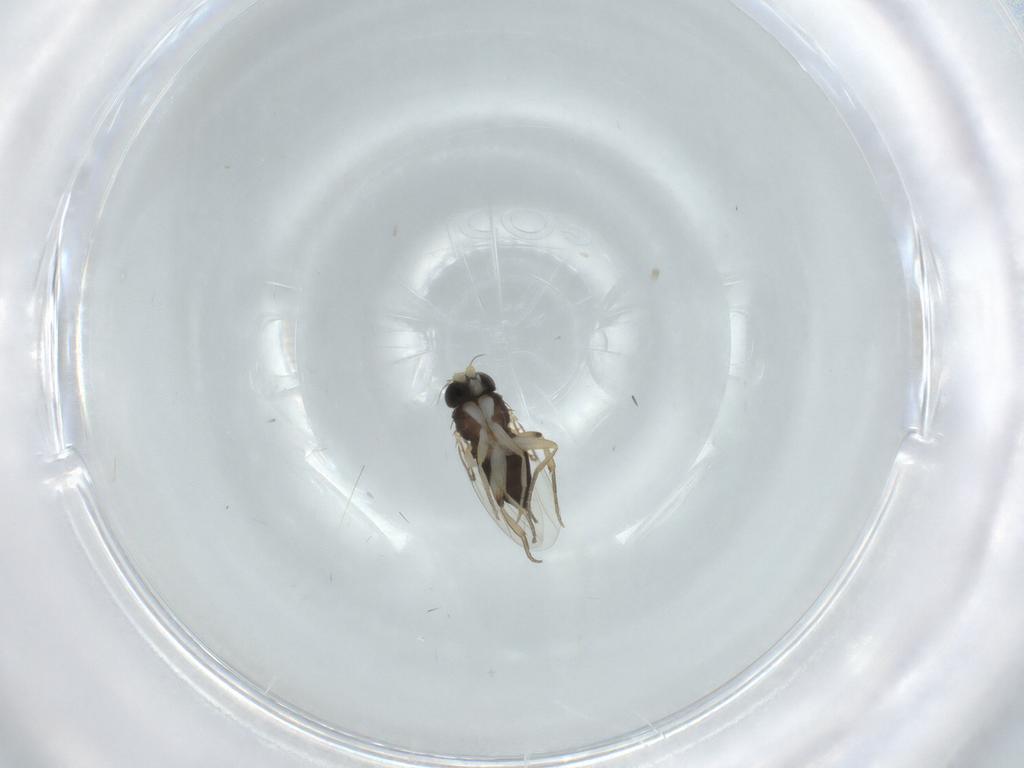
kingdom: Animalia
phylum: Arthropoda
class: Insecta
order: Diptera
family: Phoridae
